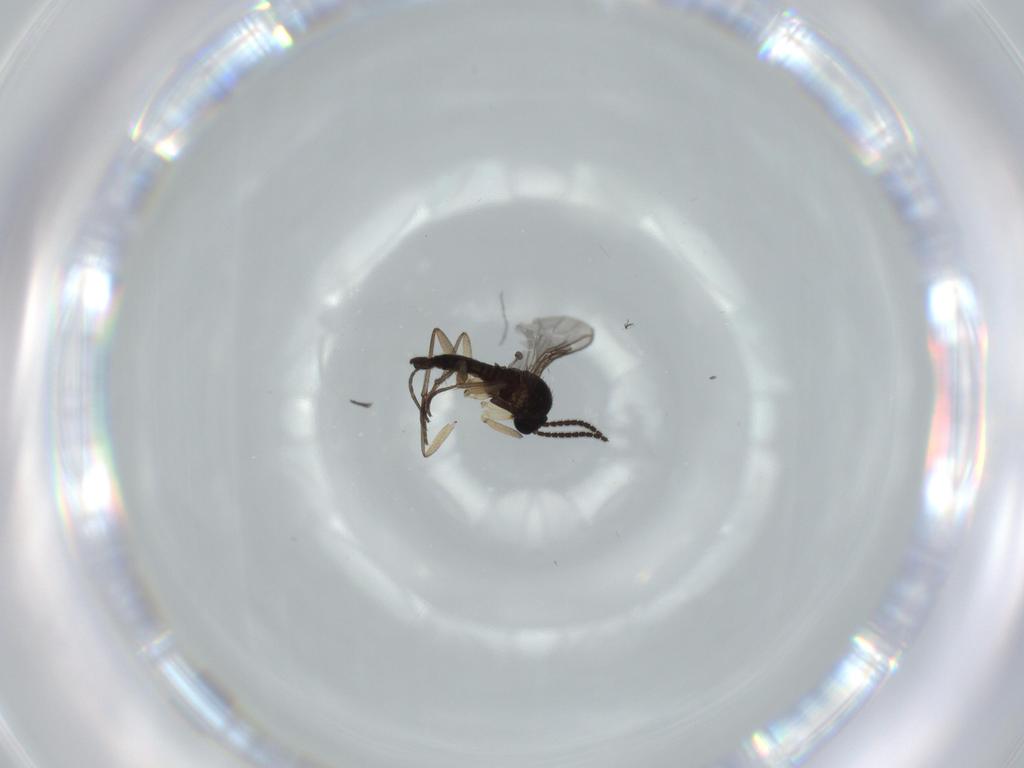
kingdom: Animalia
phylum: Arthropoda
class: Insecta
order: Diptera
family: Sciaridae
